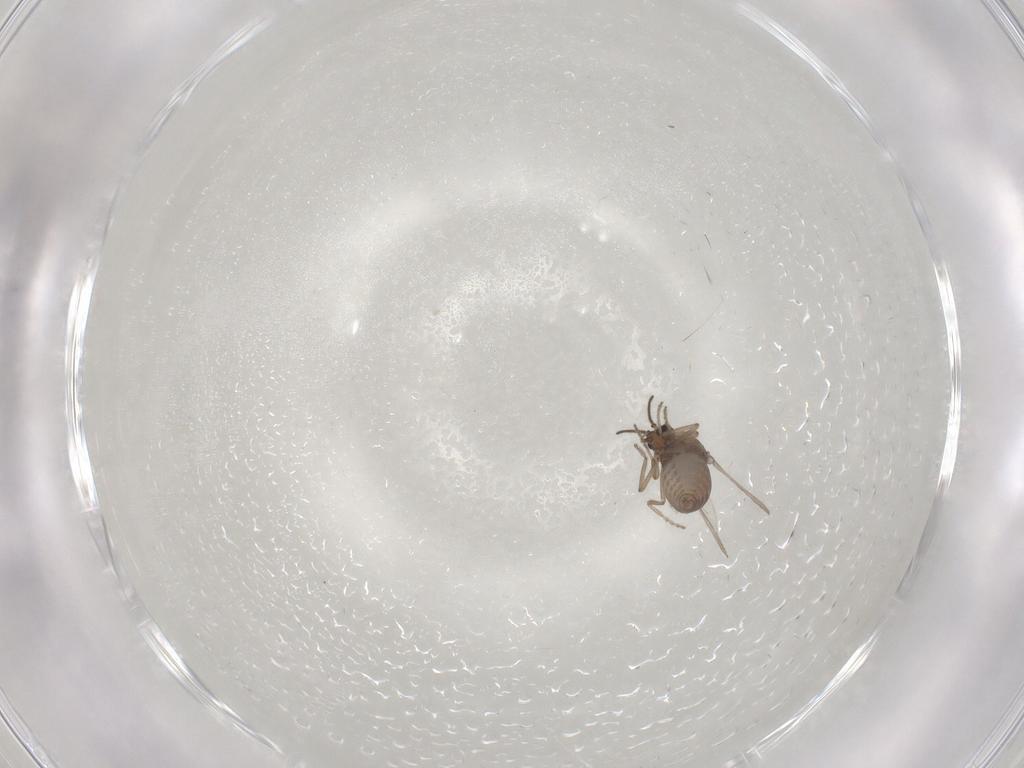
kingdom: Animalia
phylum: Arthropoda
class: Insecta
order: Diptera
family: Ceratopogonidae
